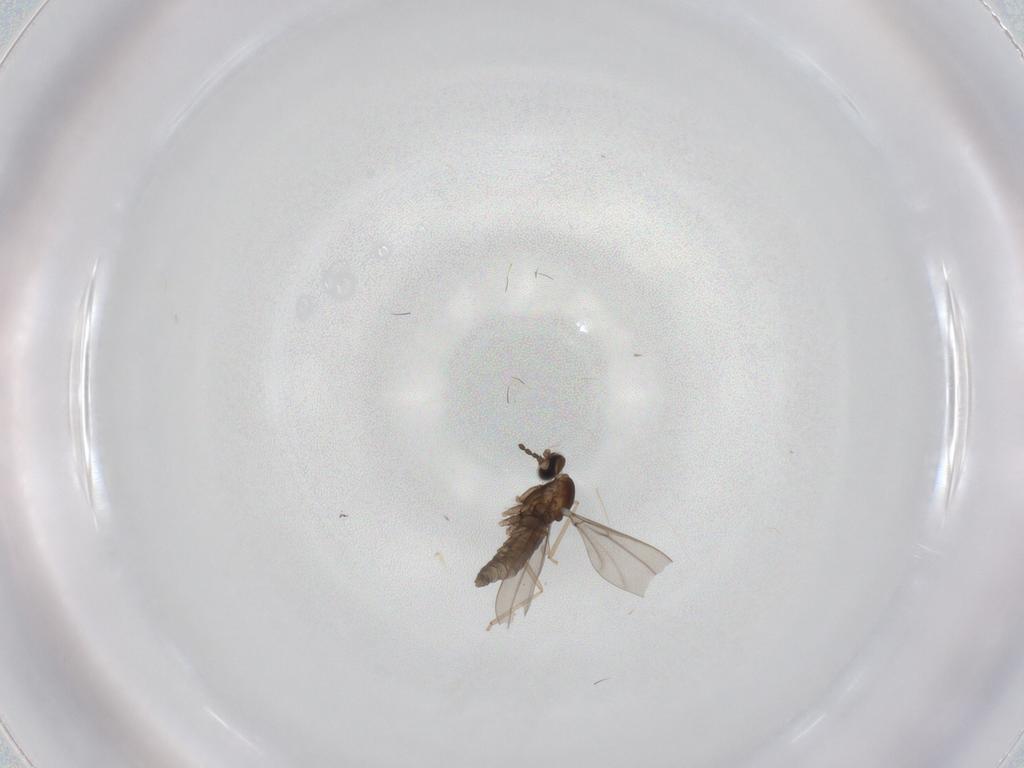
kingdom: Animalia
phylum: Arthropoda
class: Insecta
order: Diptera
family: Cecidomyiidae
